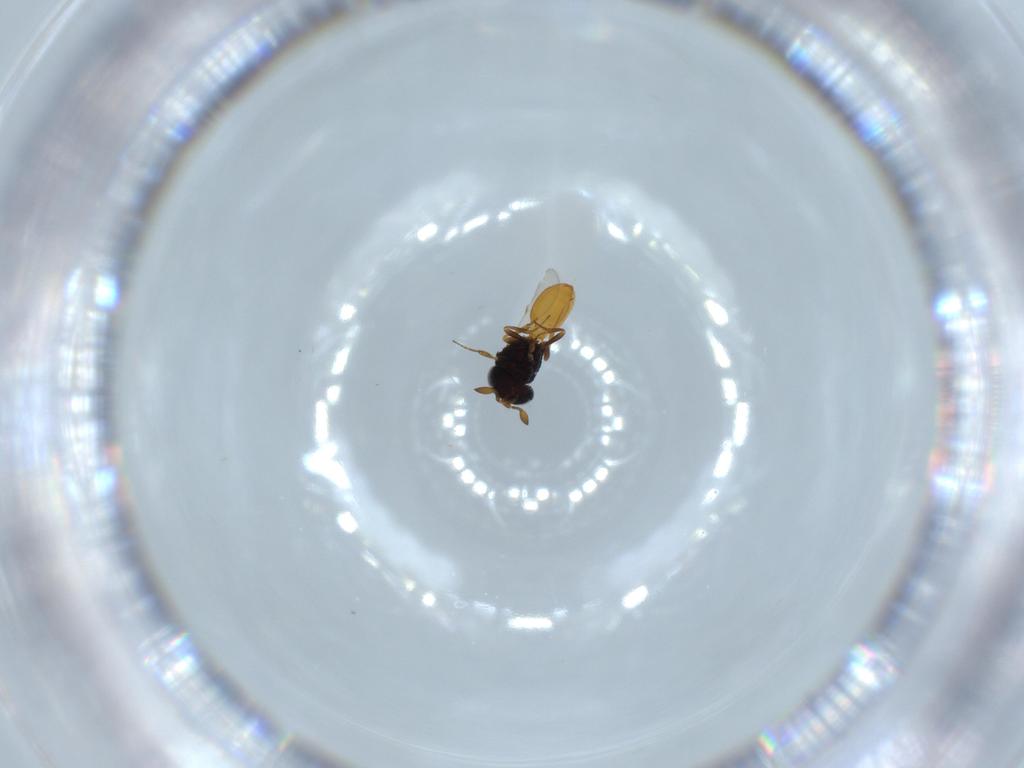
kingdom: Animalia
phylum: Arthropoda
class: Insecta
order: Hymenoptera
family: Scelionidae
